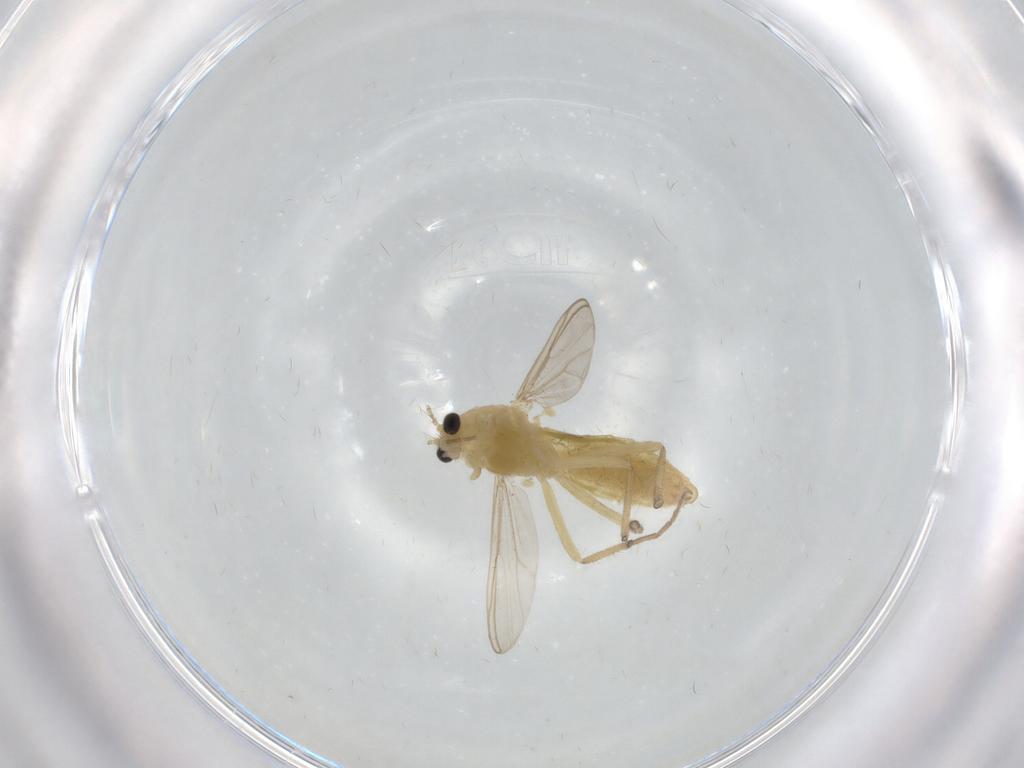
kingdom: Animalia
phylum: Arthropoda
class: Insecta
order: Diptera
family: Chironomidae
